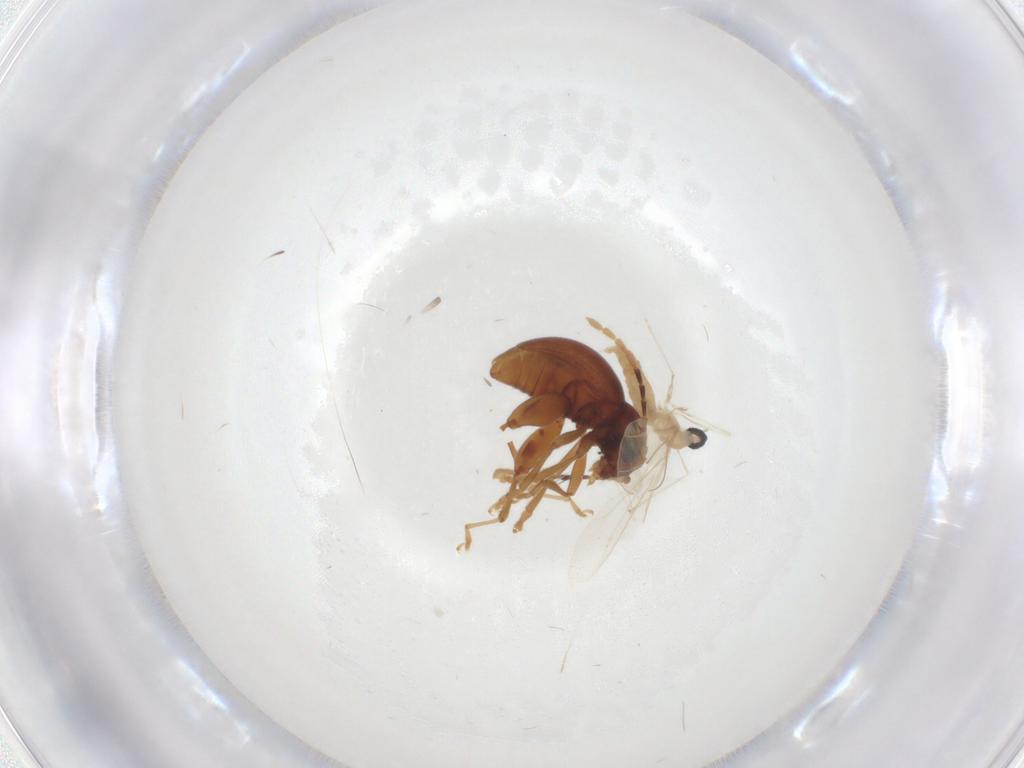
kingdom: Animalia
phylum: Arthropoda
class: Insecta
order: Coleoptera
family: Chrysomelidae
